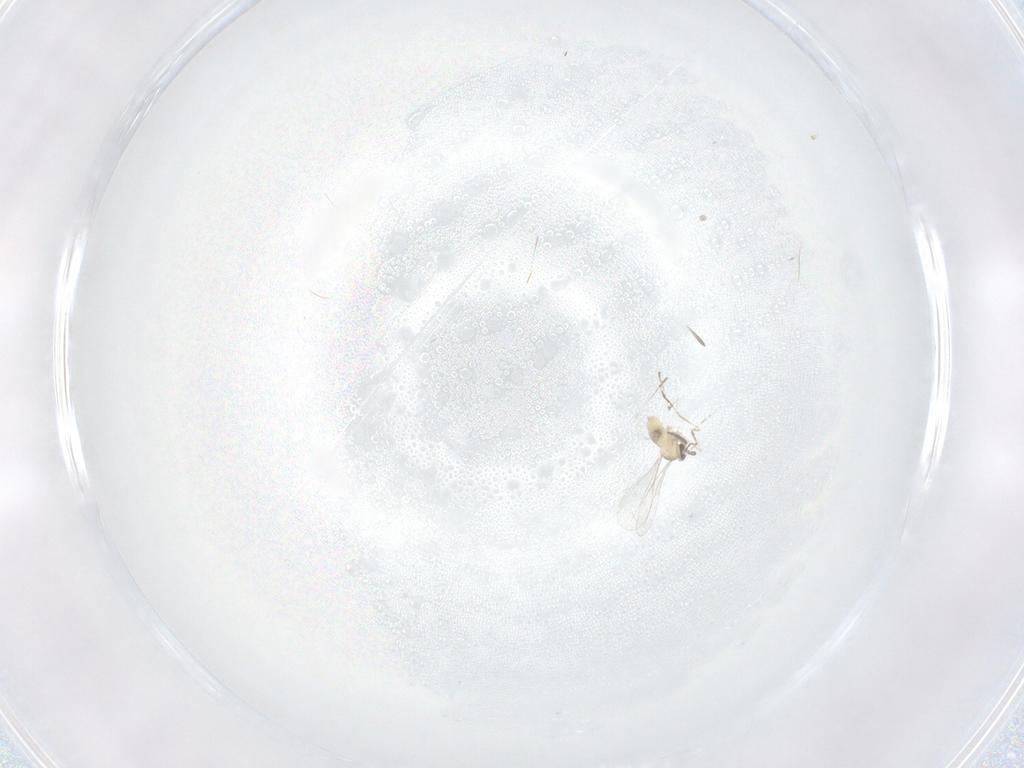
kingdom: Animalia
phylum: Arthropoda
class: Insecta
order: Diptera
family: Cecidomyiidae
